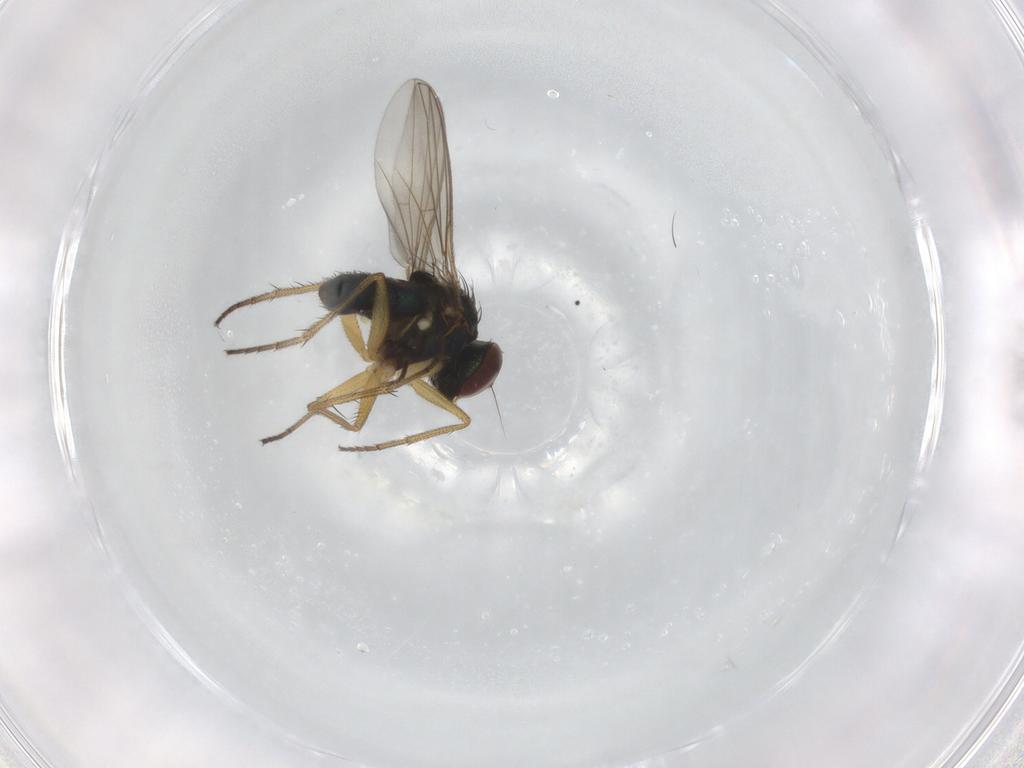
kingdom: Animalia
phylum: Arthropoda
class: Insecta
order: Diptera
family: Dolichopodidae
